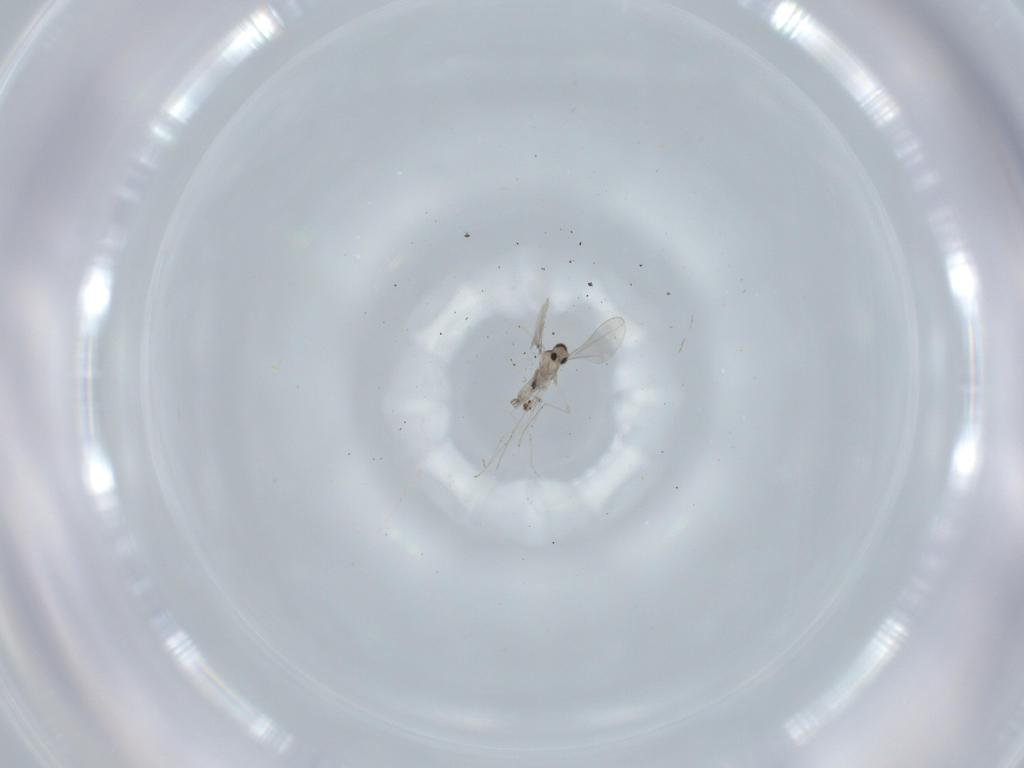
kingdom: Animalia
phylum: Arthropoda
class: Insecta
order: Diptera
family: Cecidomyiidae
